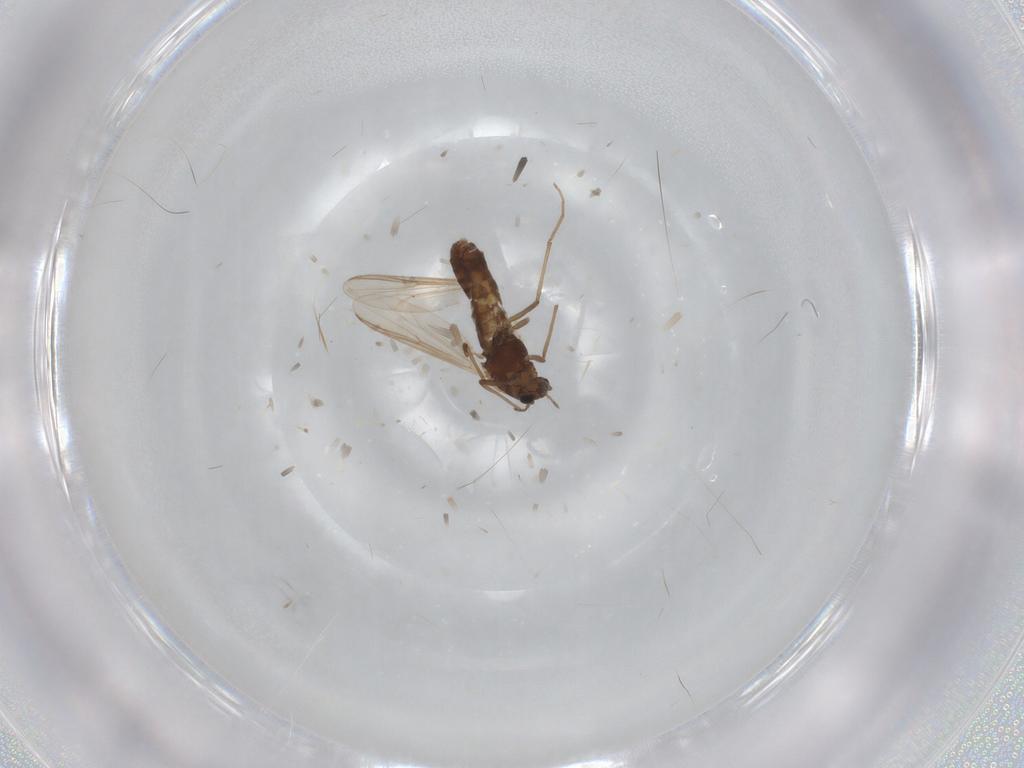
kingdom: Animalia
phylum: Arthropoda
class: Insecta
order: Diptera
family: Chironomidae
